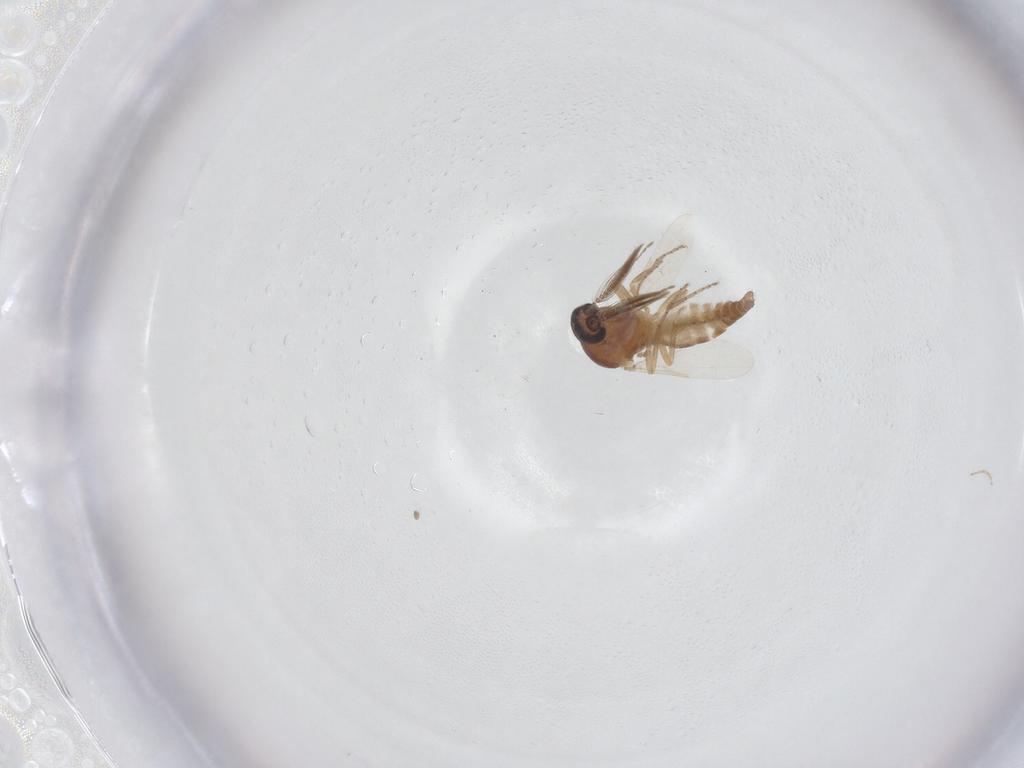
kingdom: Animalia
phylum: Arthropoda
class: Insecta
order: Diptera
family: Ceratopogonidae
